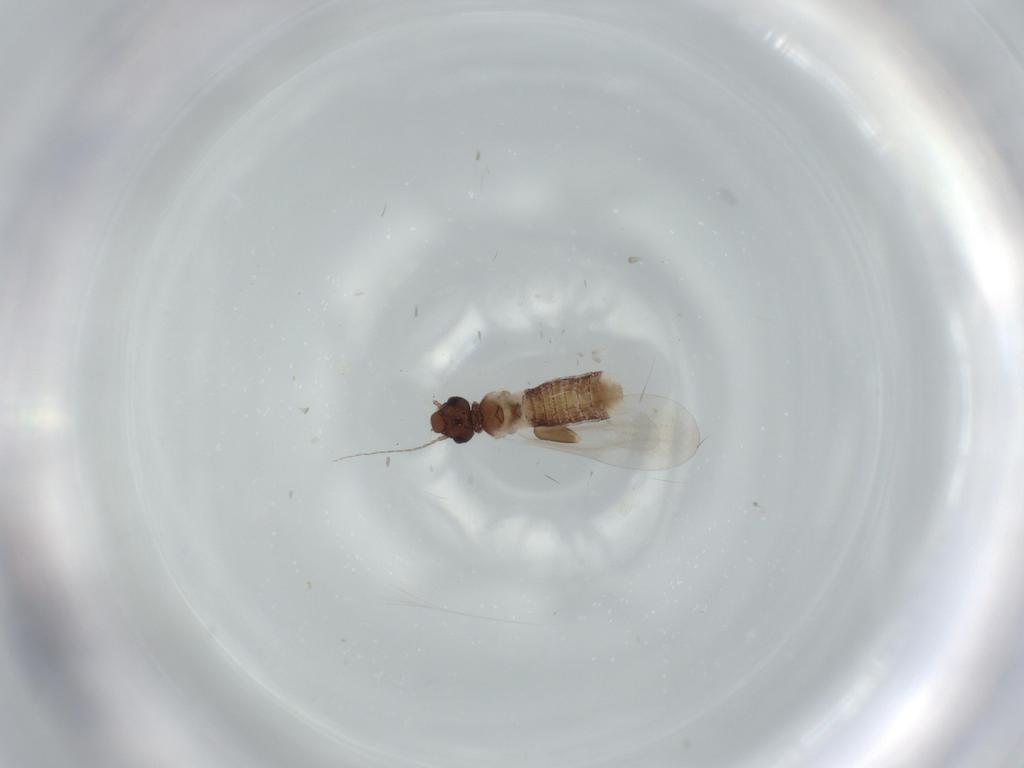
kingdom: Animalia
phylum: Arthropoda
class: Insecta
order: Psocodea
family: Liposcelididae
